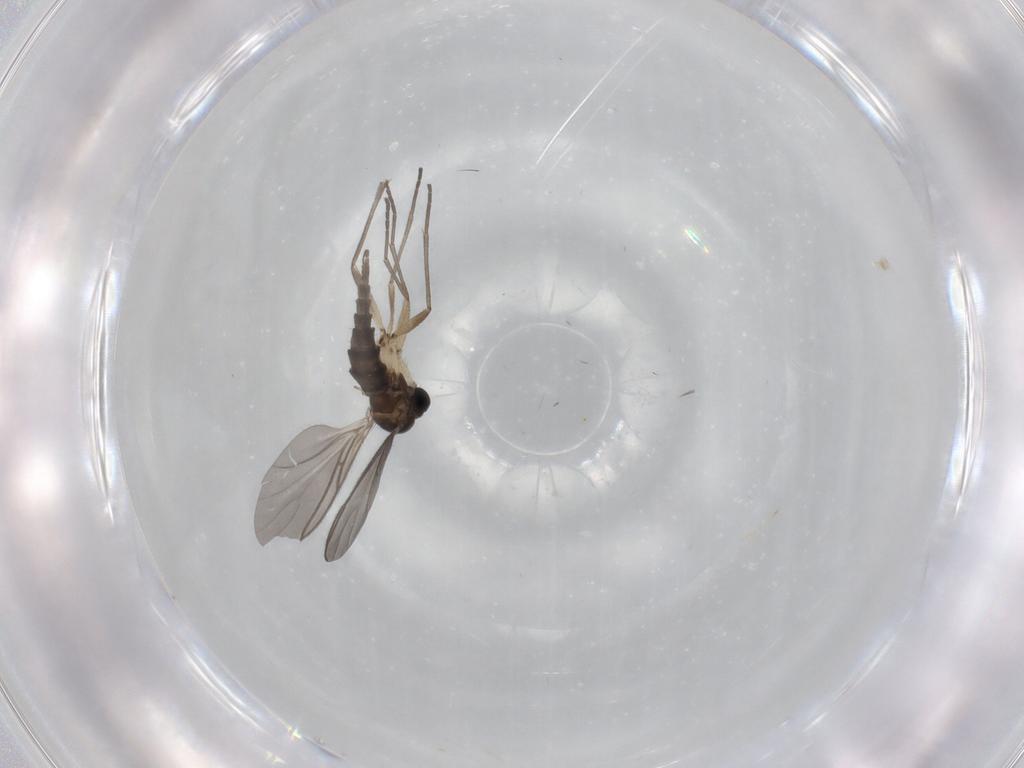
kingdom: Animalia
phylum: Arthropoda
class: Insecta
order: Diptera
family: Sciaridae
